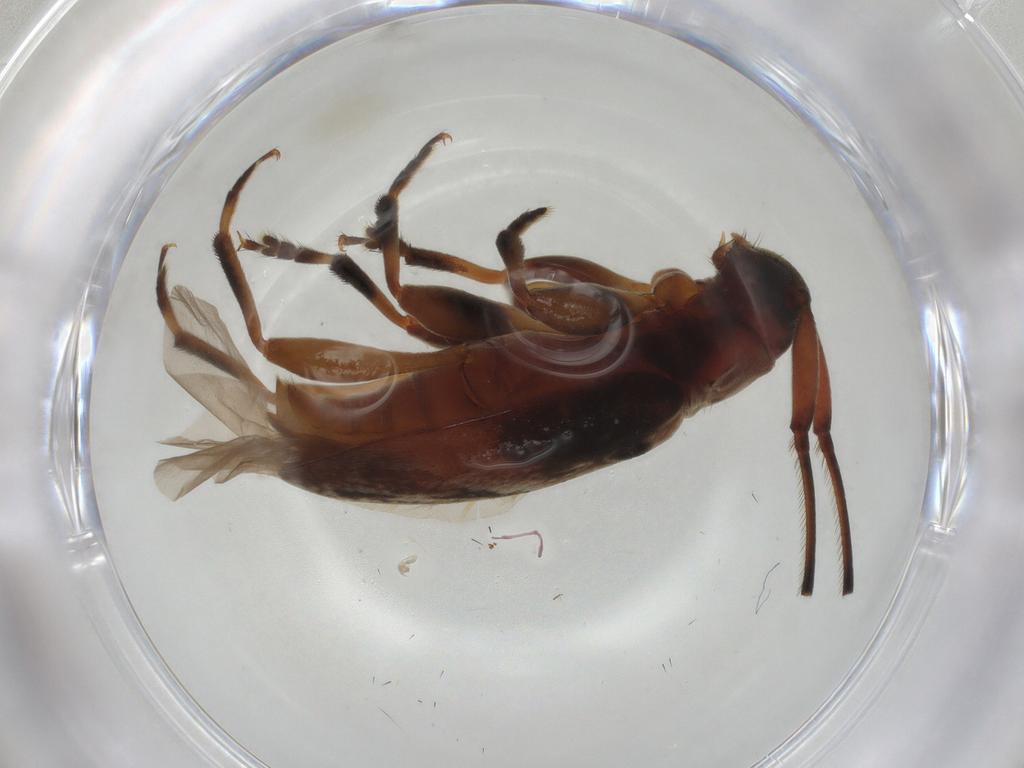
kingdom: Animalia
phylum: Arthropoda
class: Insecta
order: Coleoptera
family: Cerambycidae
